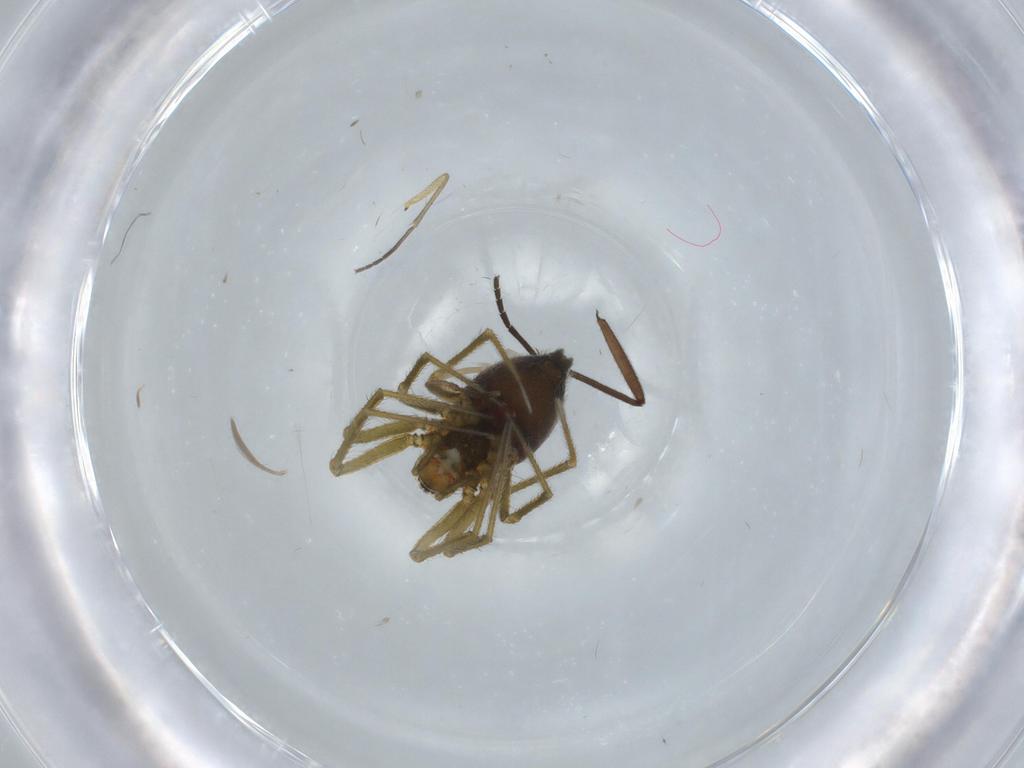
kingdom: Animalia
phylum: Arthropoda
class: Arachnida
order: Araneae
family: Linyphiidae
